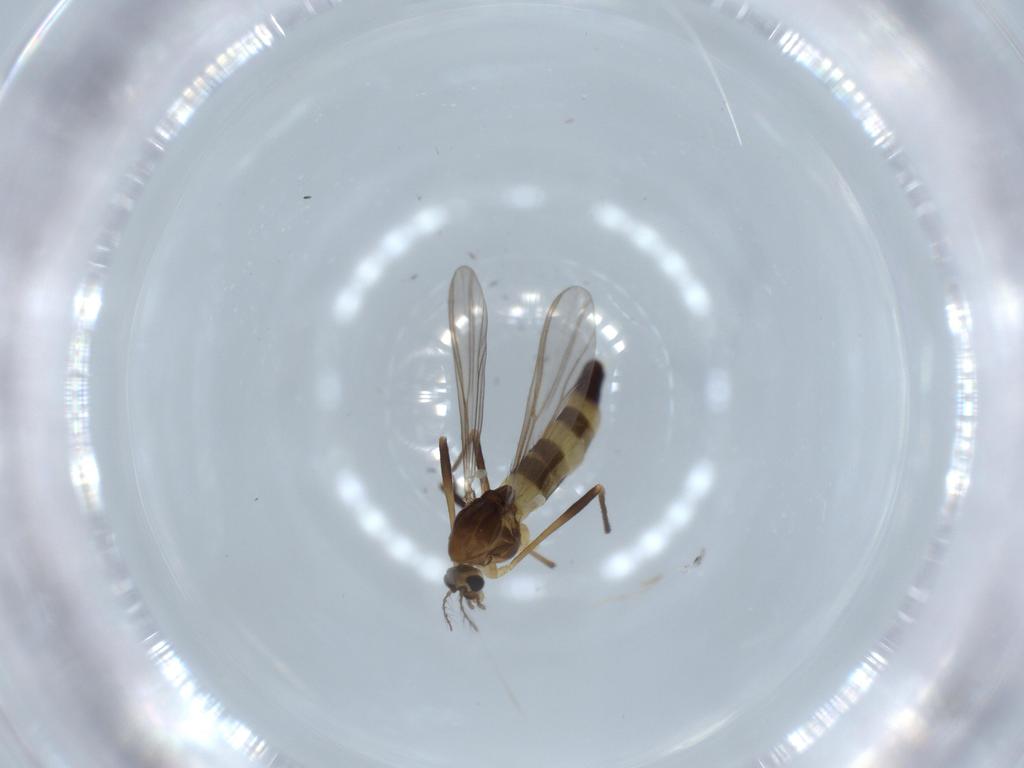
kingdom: Animalia
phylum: Arthropoda
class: Insecta
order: Diptera
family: Chironomidae
